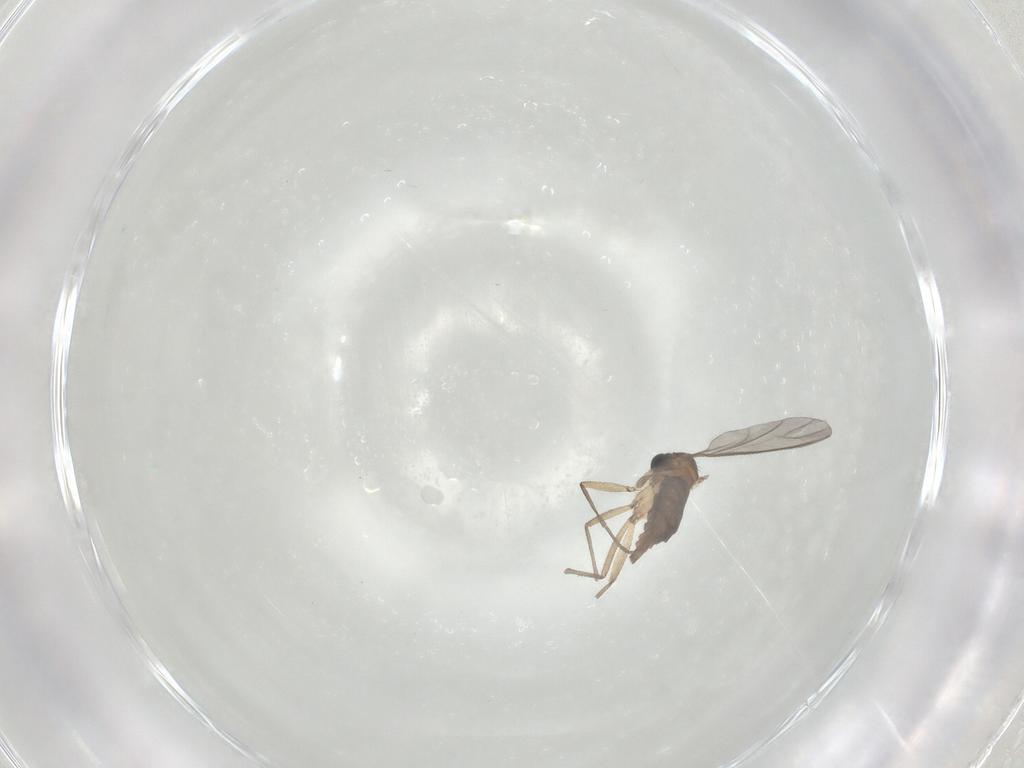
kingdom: Animalia
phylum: Arthropoda
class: Insecta
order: Diptera
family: Sciaridae
